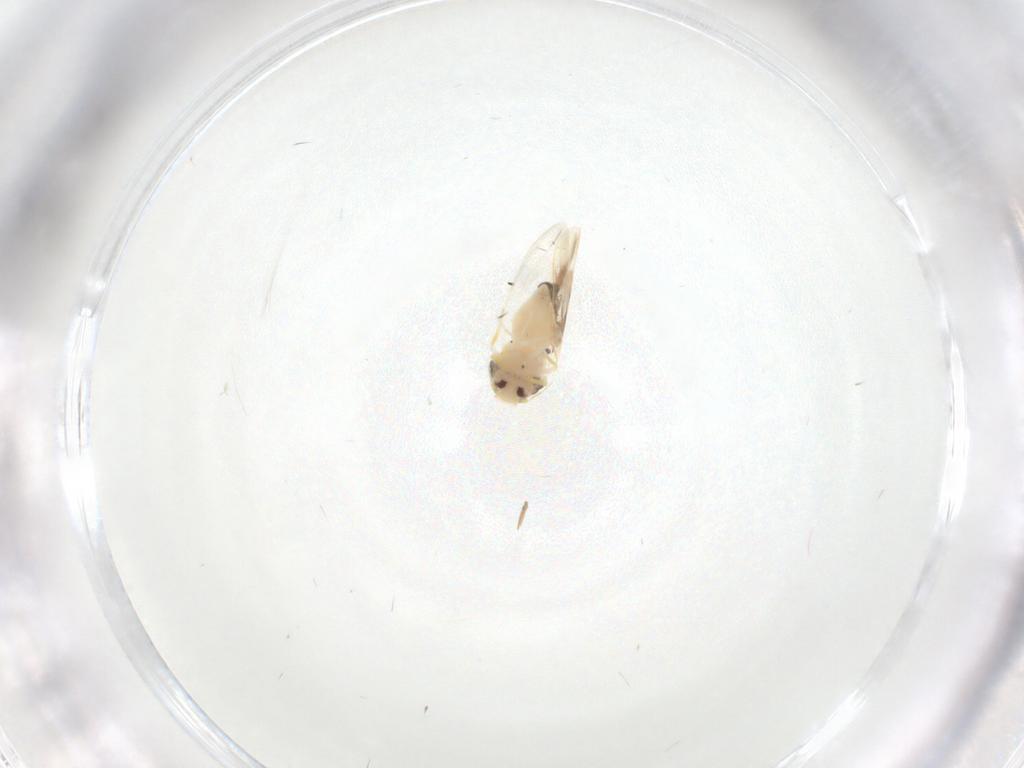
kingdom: Animalia
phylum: Arthropoda
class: Insecta
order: Hemiptera
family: Aleyrodidae
